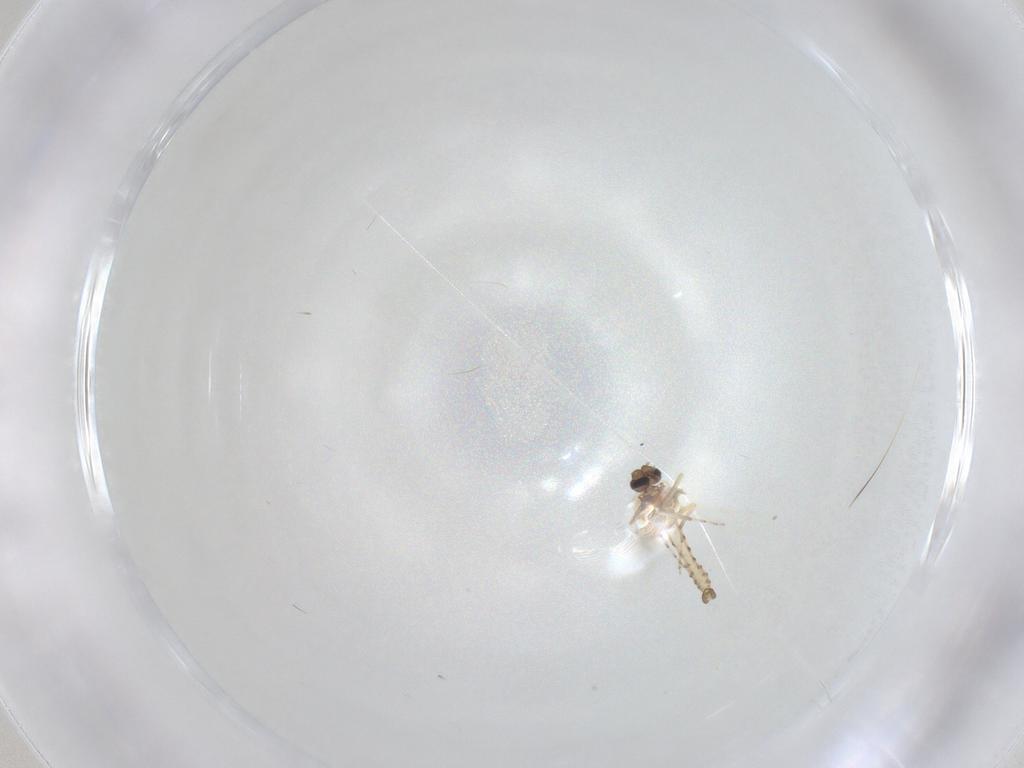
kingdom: Animalia
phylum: Arthropoda
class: Insecta
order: Diptera
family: Ceratopogonidae
